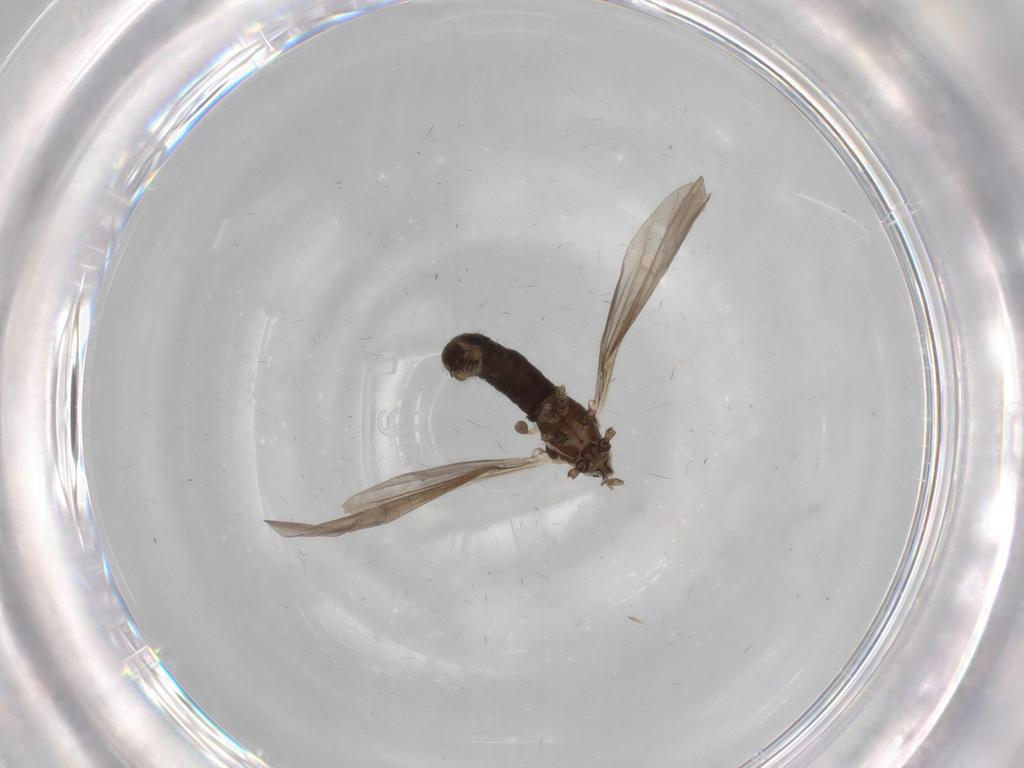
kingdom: Animalia
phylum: Arthropoda
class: Insecta
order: Diptera
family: Limoniidae
